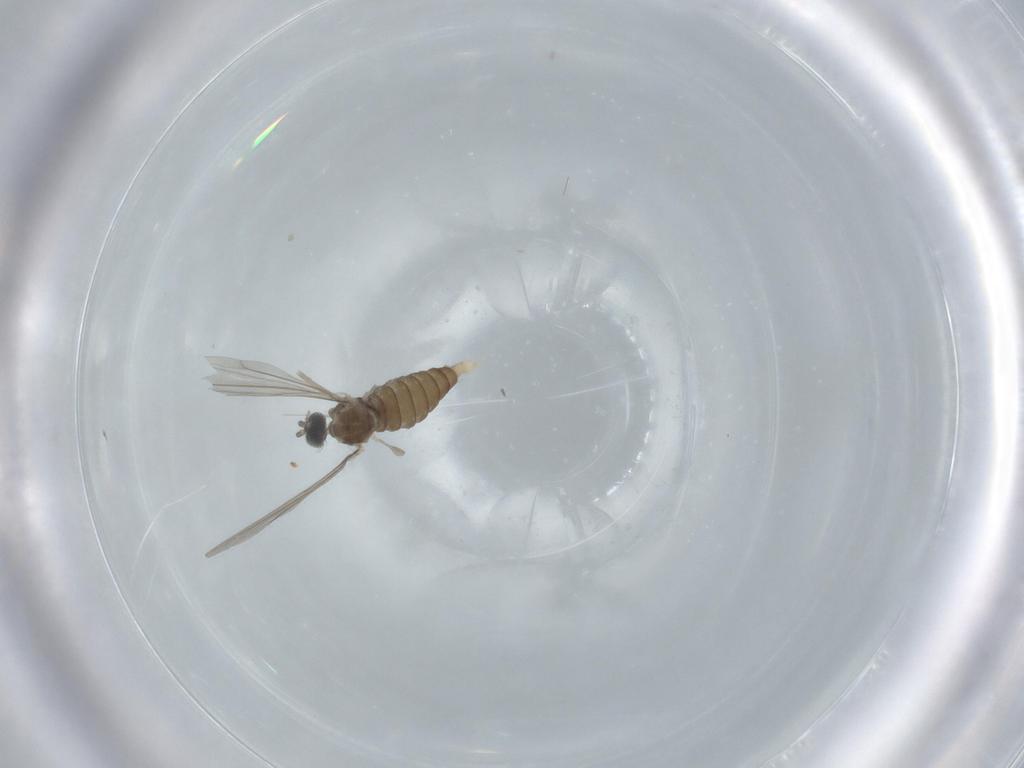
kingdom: Animalia
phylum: Arthropoda
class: Insecta
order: Diptera
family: Cecidomyiidae
